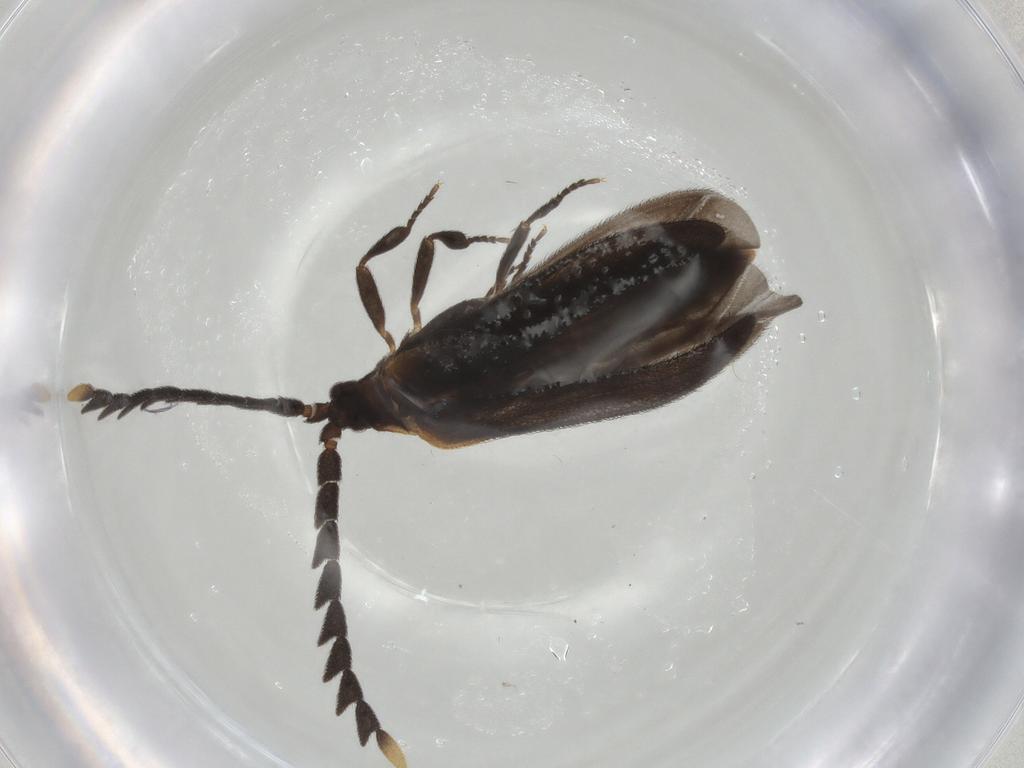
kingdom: Animalia
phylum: Arthropoda
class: Insecta
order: Coleoptera
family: Lycidae
